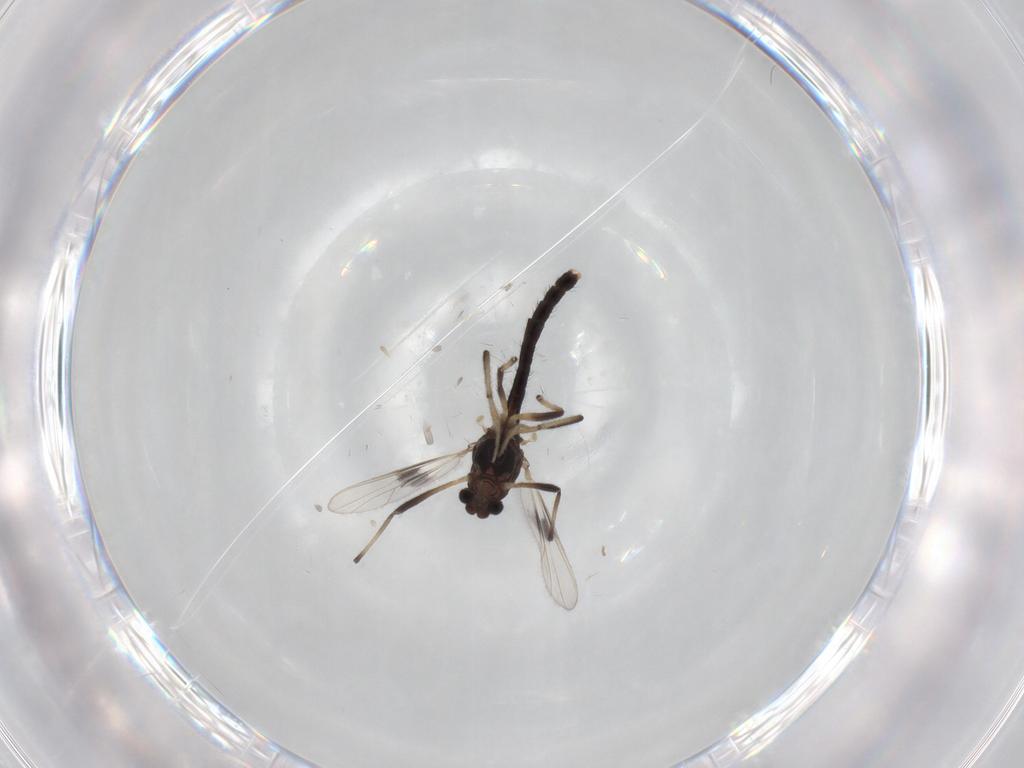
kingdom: Animalia
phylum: Arthropoda
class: Insecta
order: Diptera
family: Chironomidae
